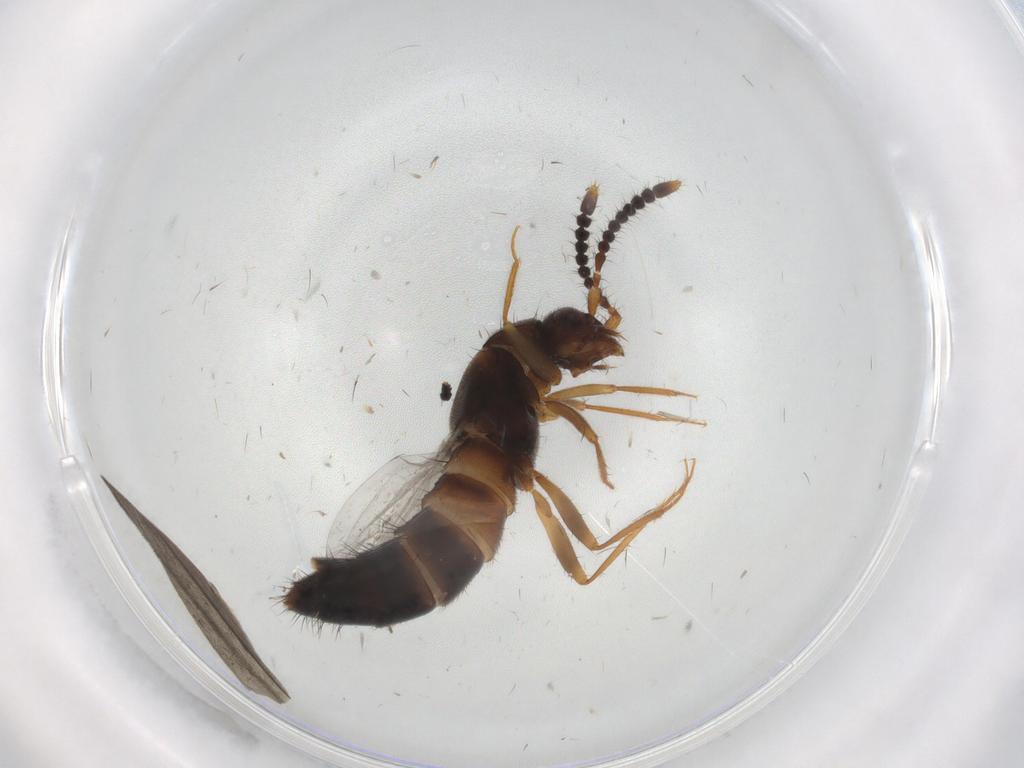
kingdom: Animalia
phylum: Arthropoda
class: Insecta
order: Coleoptera
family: Staphylinidae
